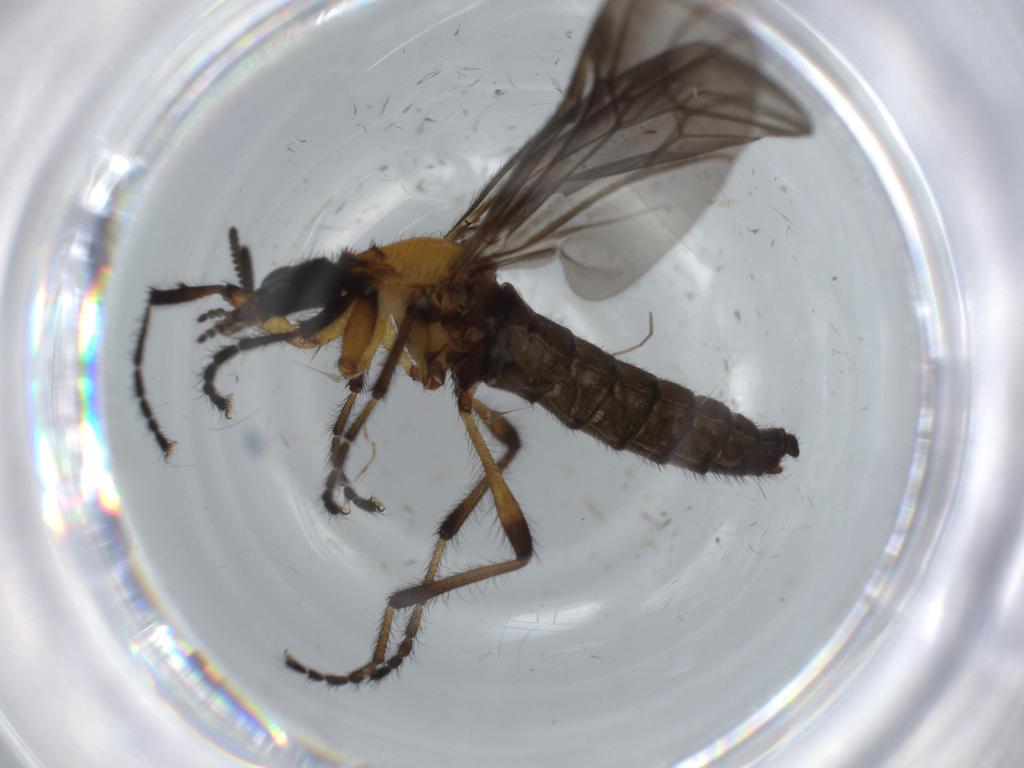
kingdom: Animalia
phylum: Arthropoda
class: Insecta
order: Diptera
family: Bibionidae
